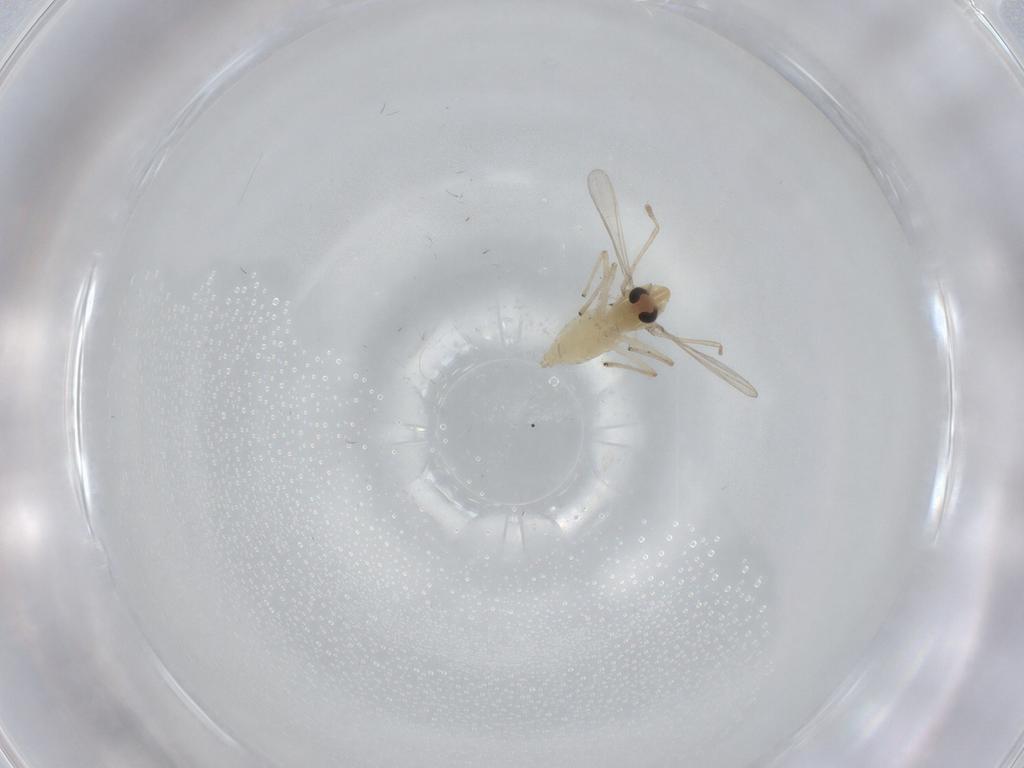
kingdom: Animalia
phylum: Arthropoda
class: Insecta
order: Diptera
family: Chironomidae
